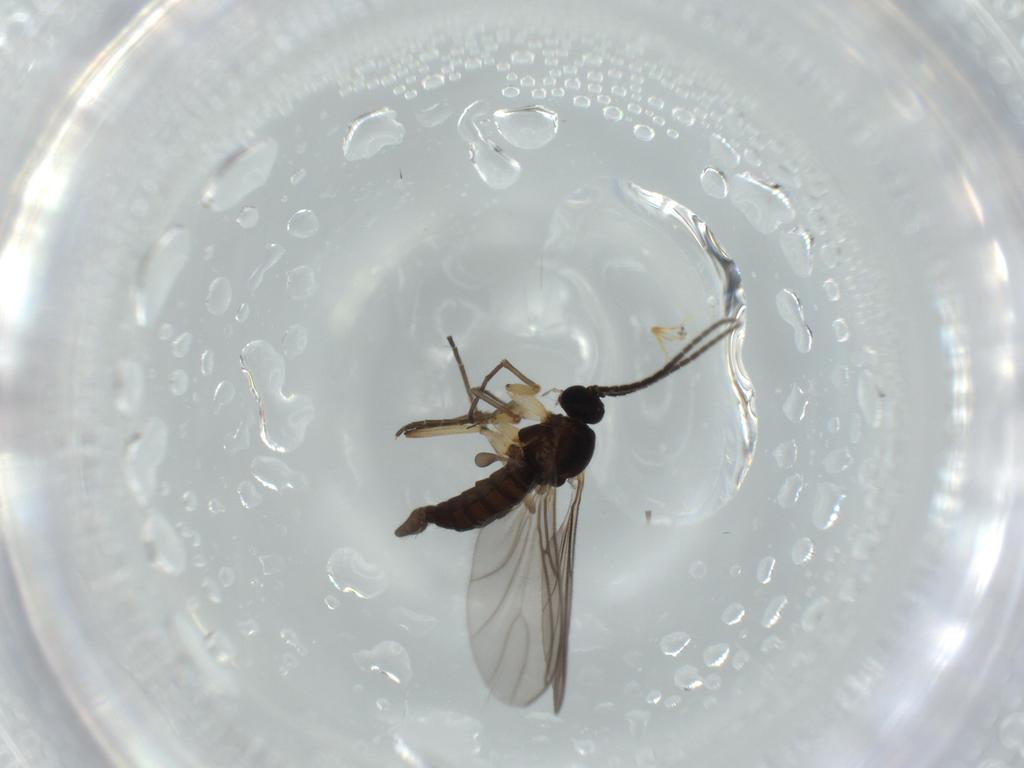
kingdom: Animalia
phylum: Arthropoda
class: Insecta
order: Diptera
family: Sciaridae
